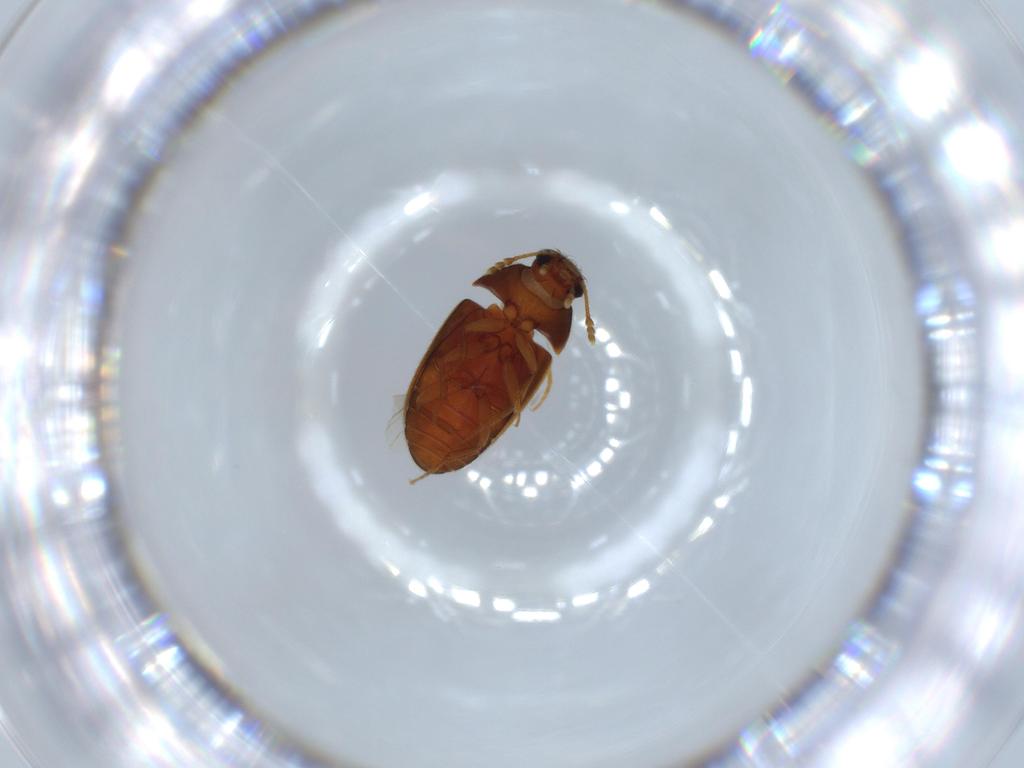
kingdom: Animalia
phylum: Arthropoda
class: Insecta
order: Coleoptera
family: Mycetophagidae
